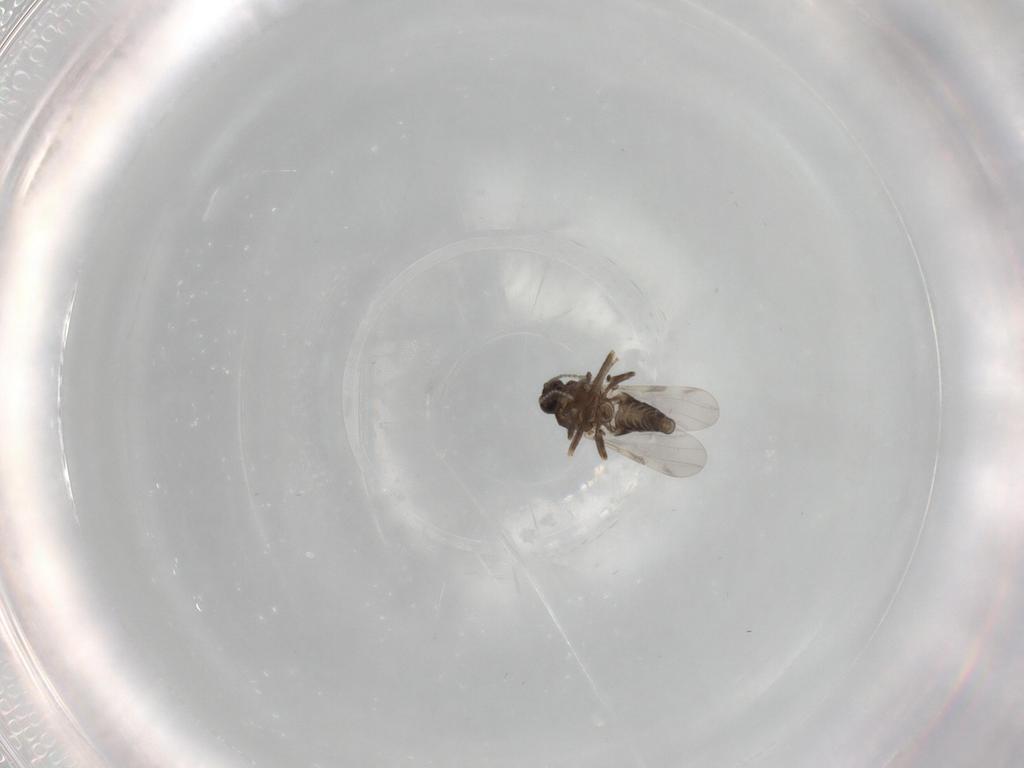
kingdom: Animalia
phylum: Arthropoda
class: Insecta
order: Diptera
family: Ceratopogonidae
